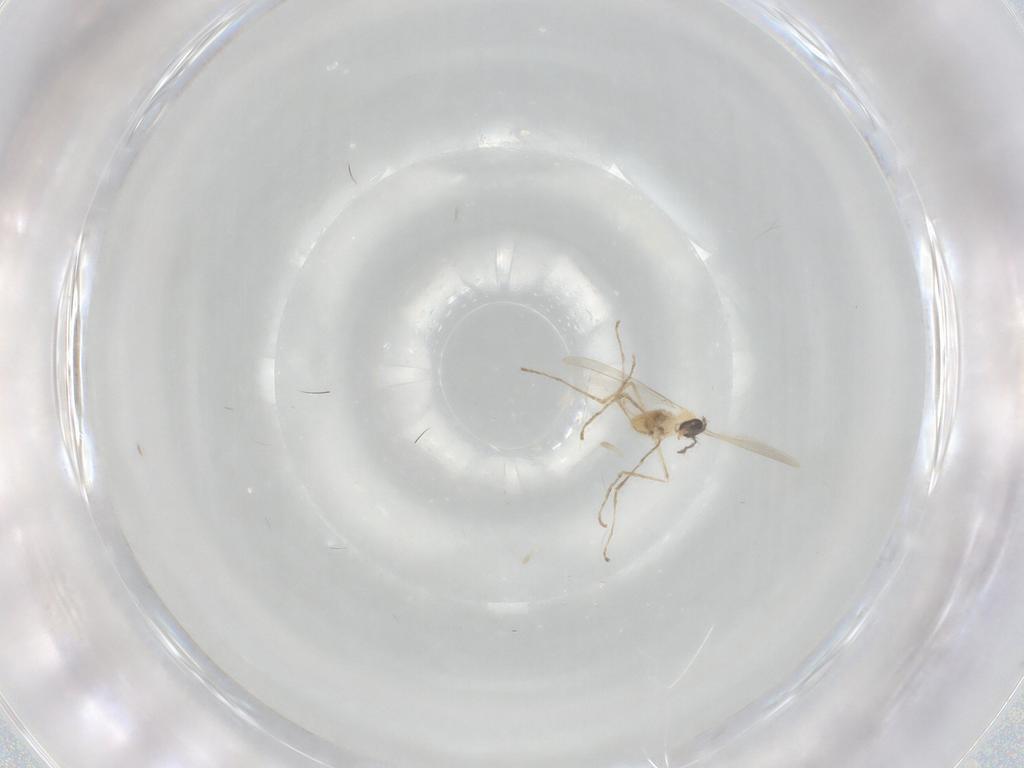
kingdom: Animalia
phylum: Arthropoda
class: Insecta
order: Diptera
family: Cecidomyiidae
